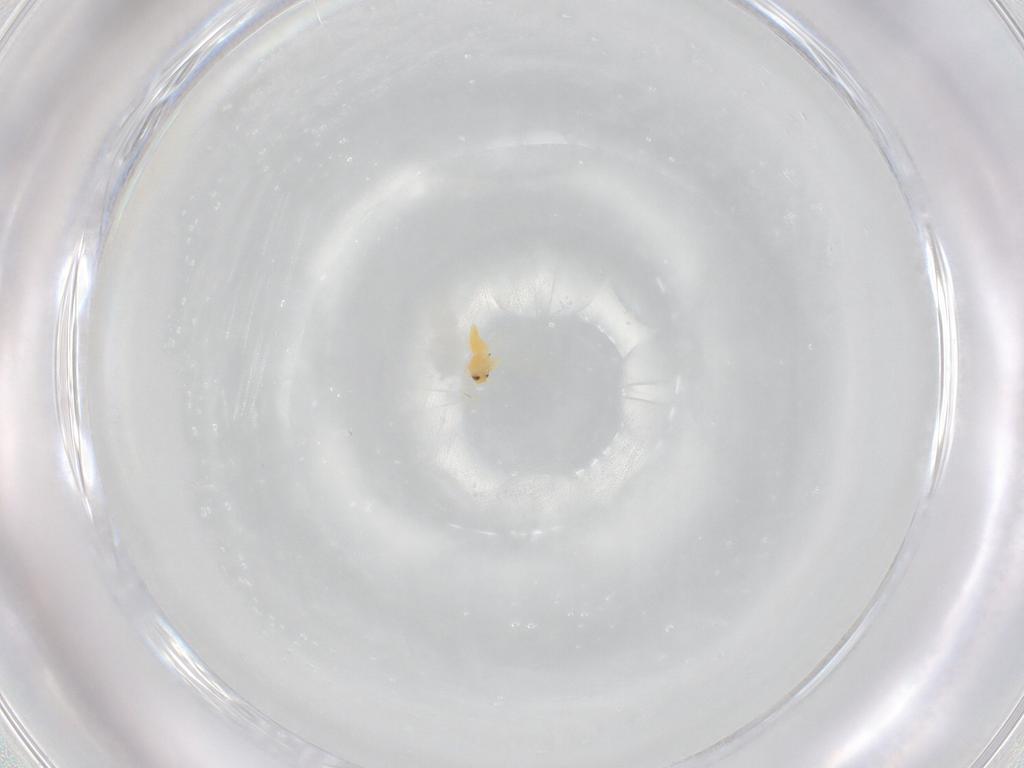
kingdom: Animalia
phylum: Arthropoda
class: Insecta
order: Hemiptera
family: Aleyrodidae
